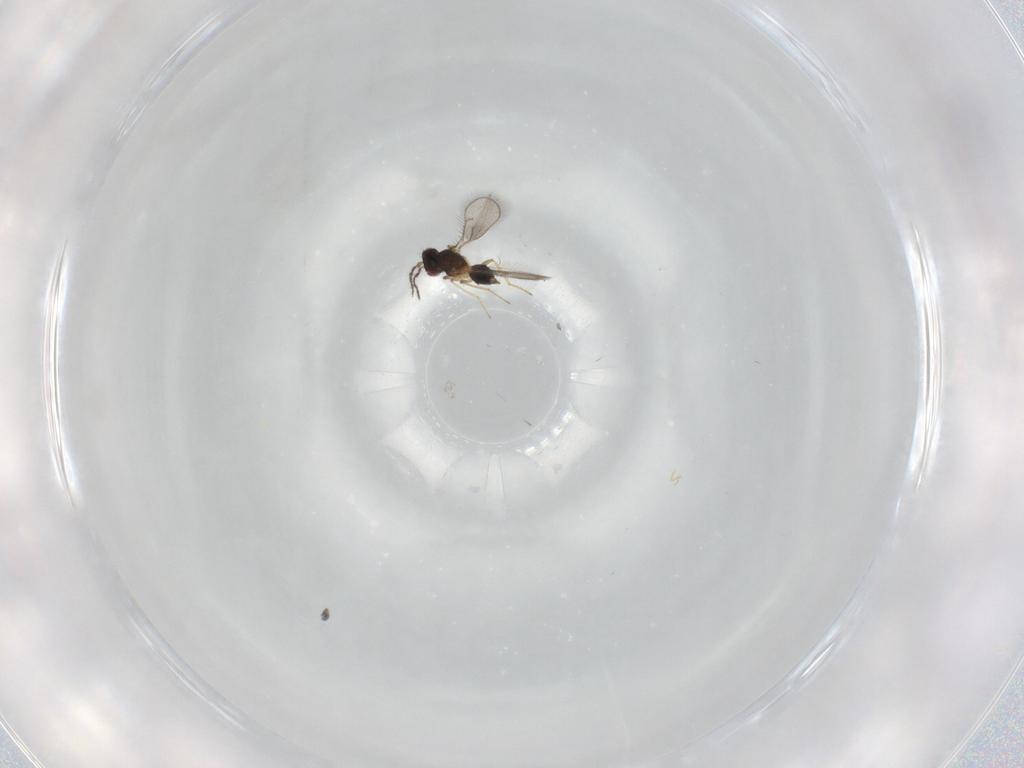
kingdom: Animalia
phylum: Arthropoda
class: Insecta
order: Hymenoptera
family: Eulophidae
